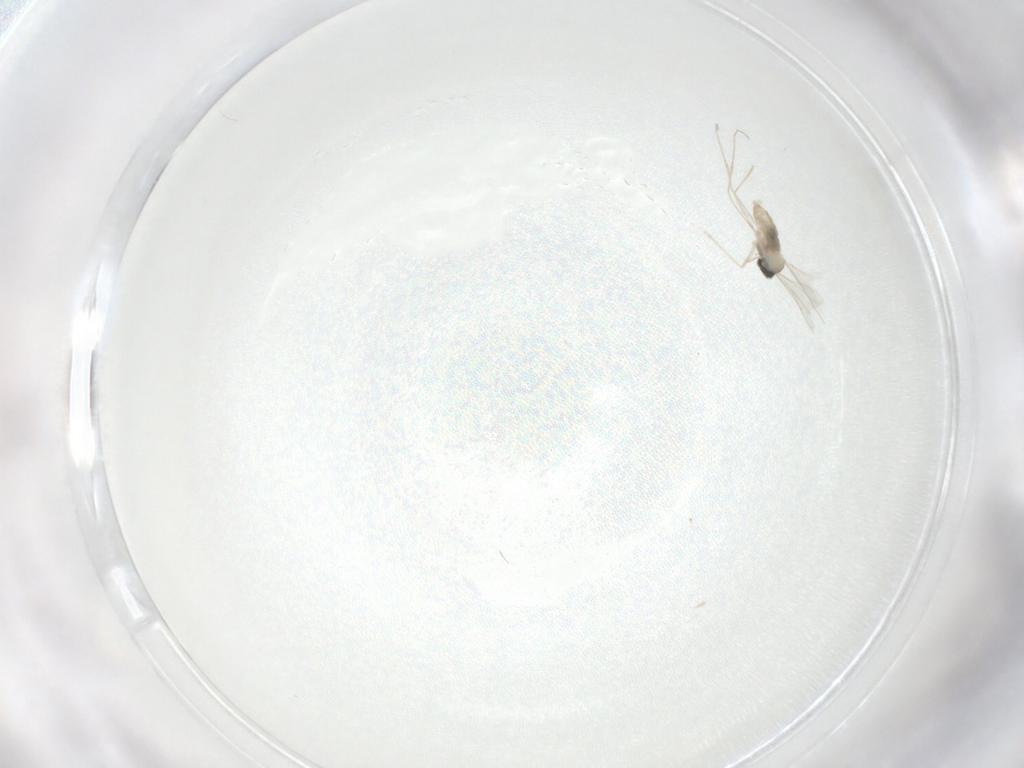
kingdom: Animalia
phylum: Arthropoda
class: Insecta
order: Diptera
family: Cecidomyiidae
